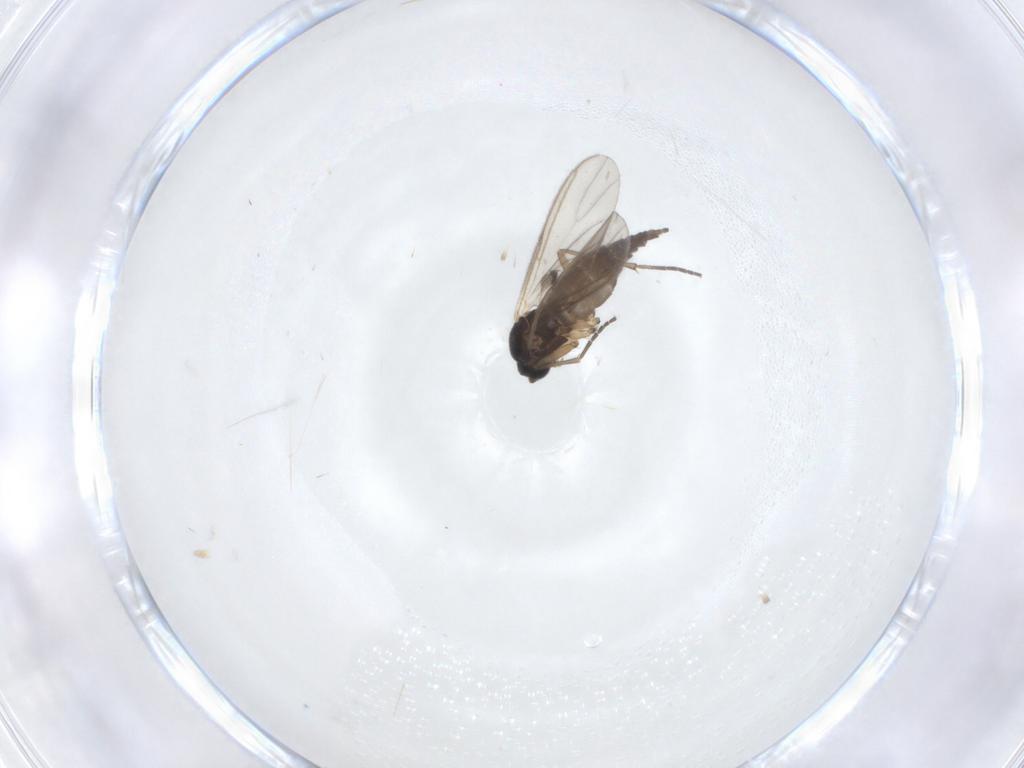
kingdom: Animalia
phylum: Arthropoda
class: Insecta
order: Diptera
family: Sciaridae
